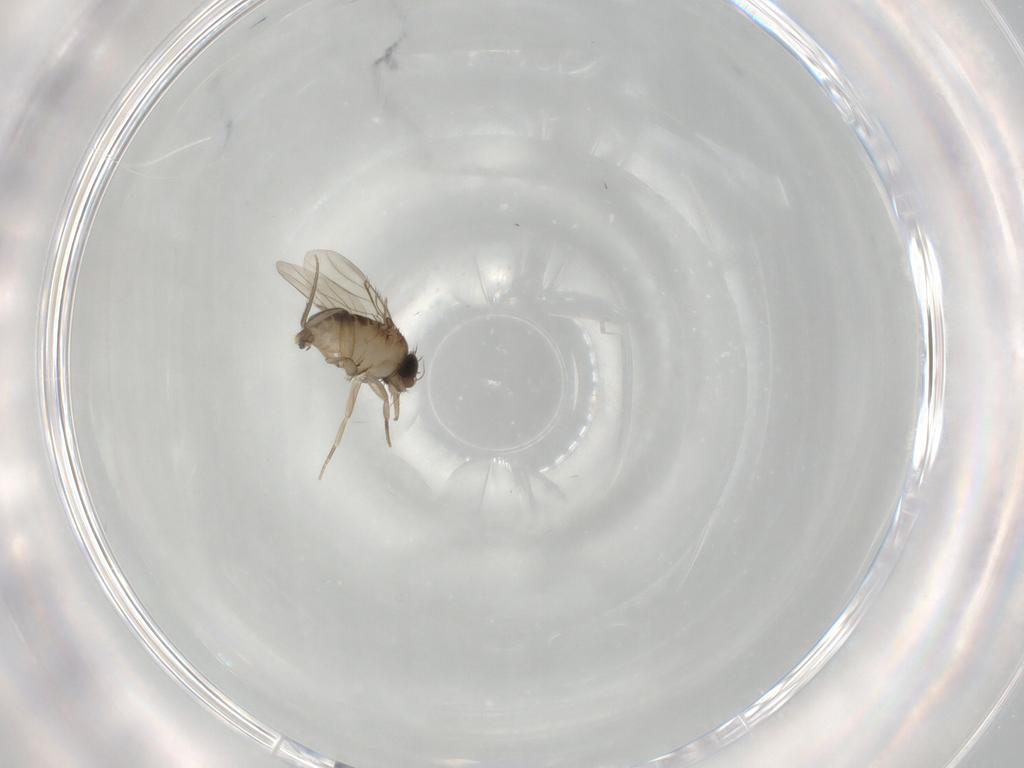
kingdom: Animalia
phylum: Arthropoda
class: Insecta
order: Diptera
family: Phoridae
